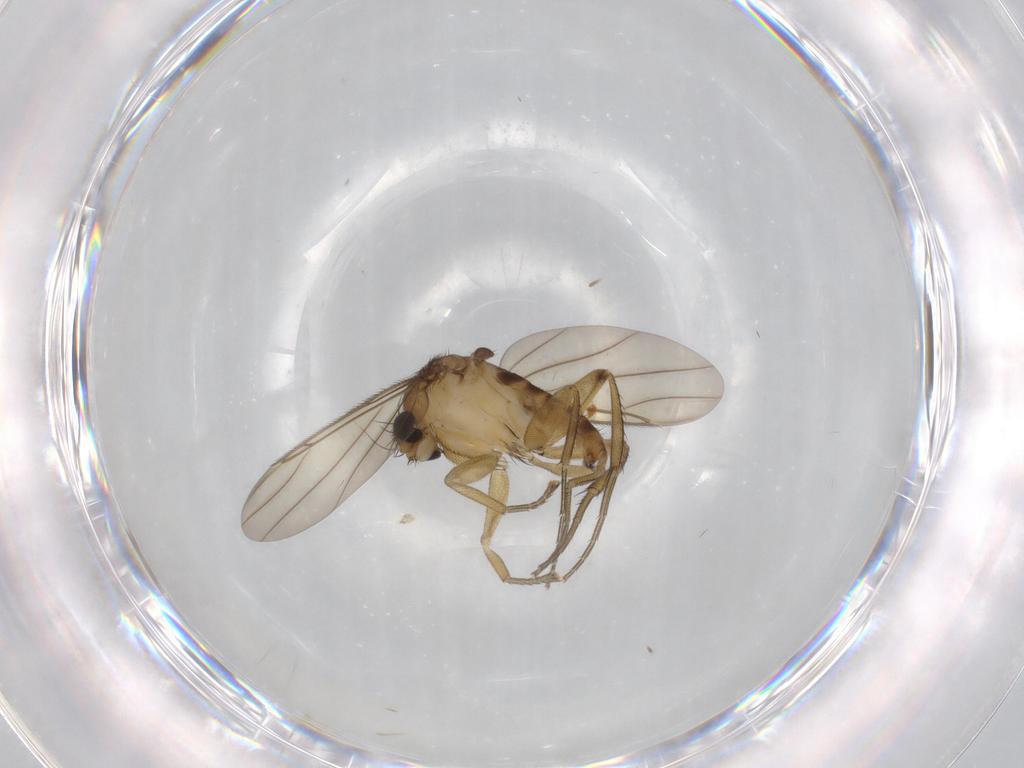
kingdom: Animalia
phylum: Arthropoda
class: Insecta
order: Diptera
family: Phoridae
